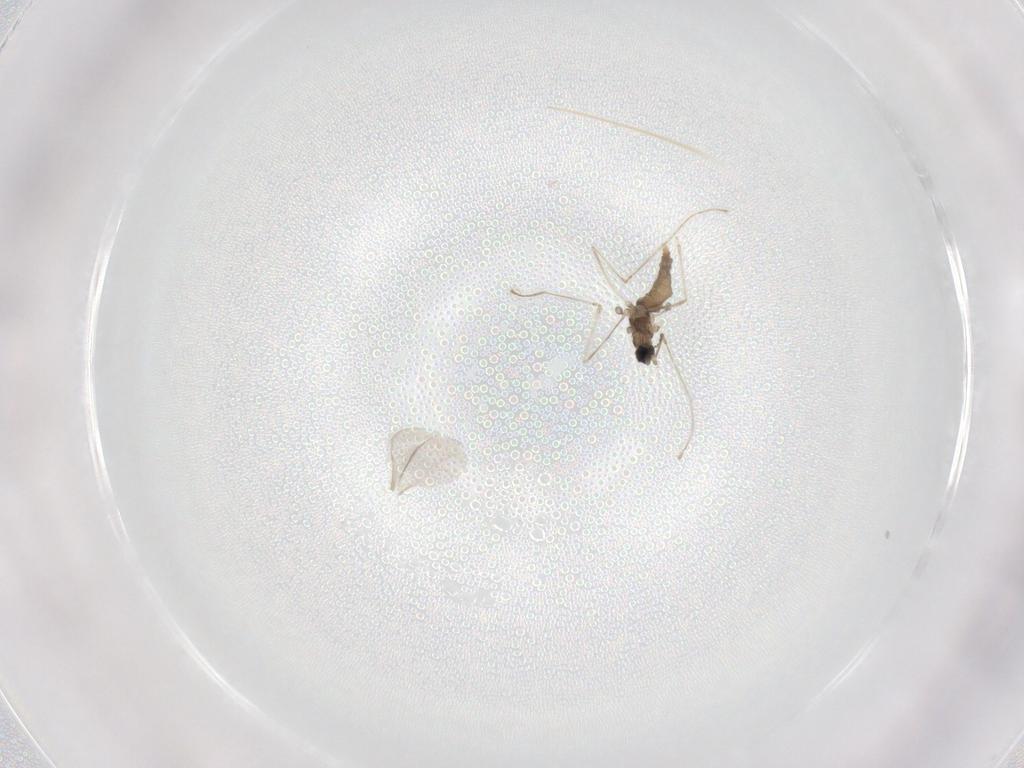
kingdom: Animalia
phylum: Arthropoda
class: Insecta
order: Diptera
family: Cecidomyiidae
